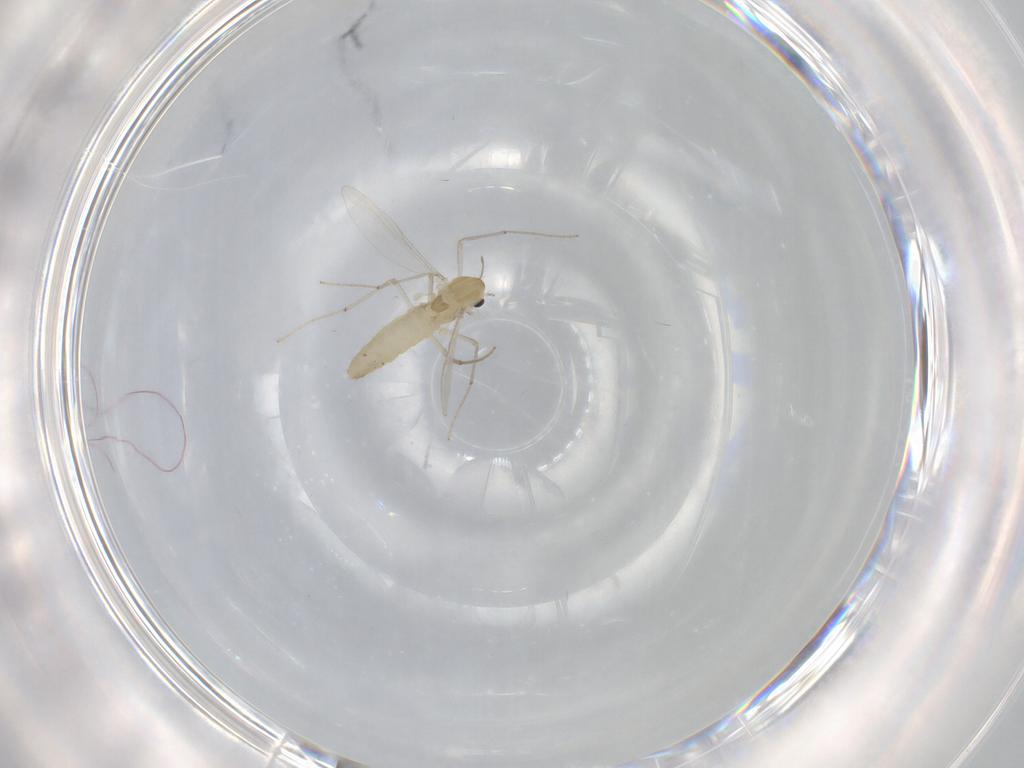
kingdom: Animalia
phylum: Arthropoda
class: Insecta
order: Diptera
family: Chironomidae
